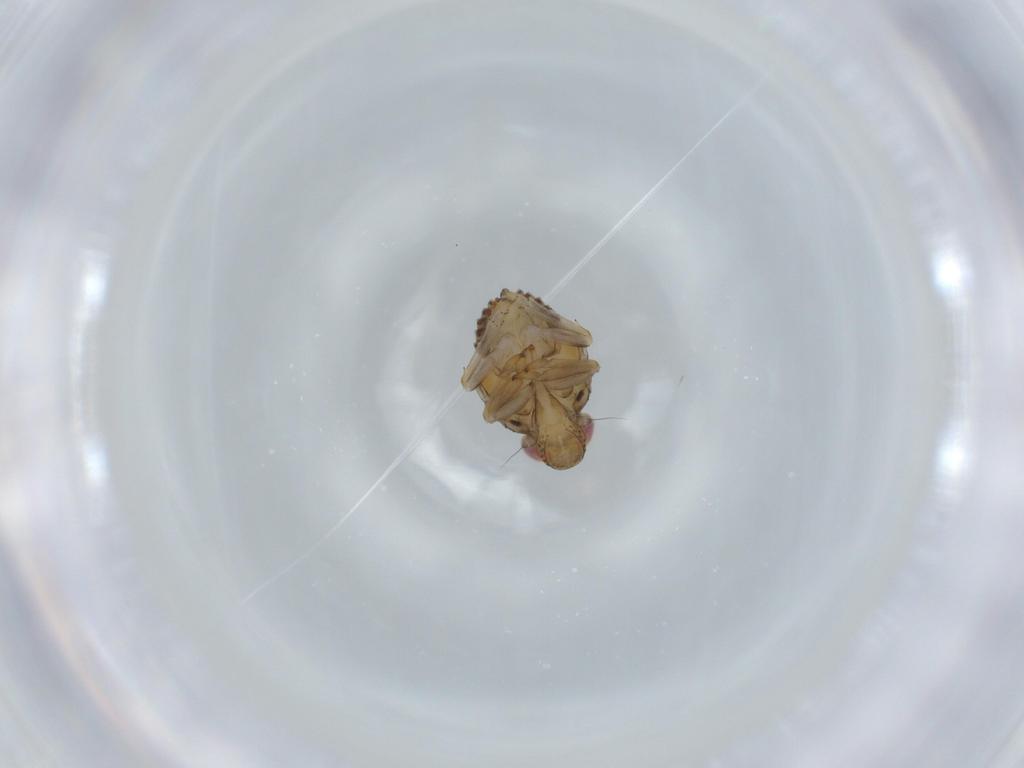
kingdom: Animalia
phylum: Arthropoda
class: Insecta
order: Hemiptera
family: Issidae
